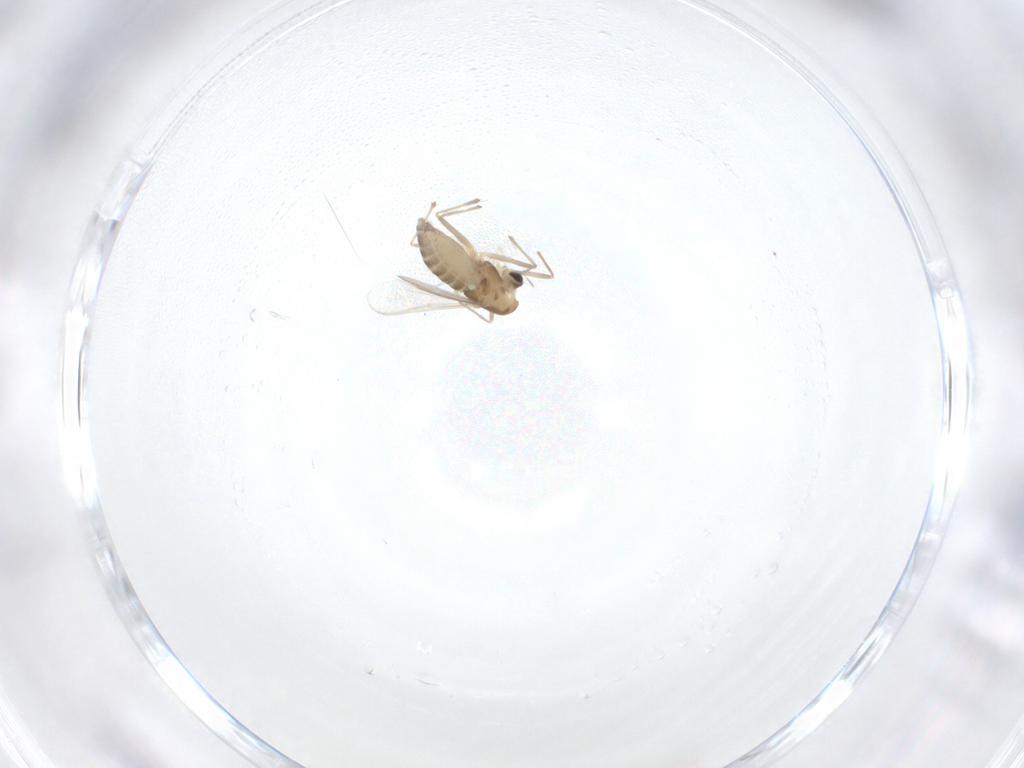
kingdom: Animalia
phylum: Arthropoda
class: Insecta
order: Diptera
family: Chironomidae
